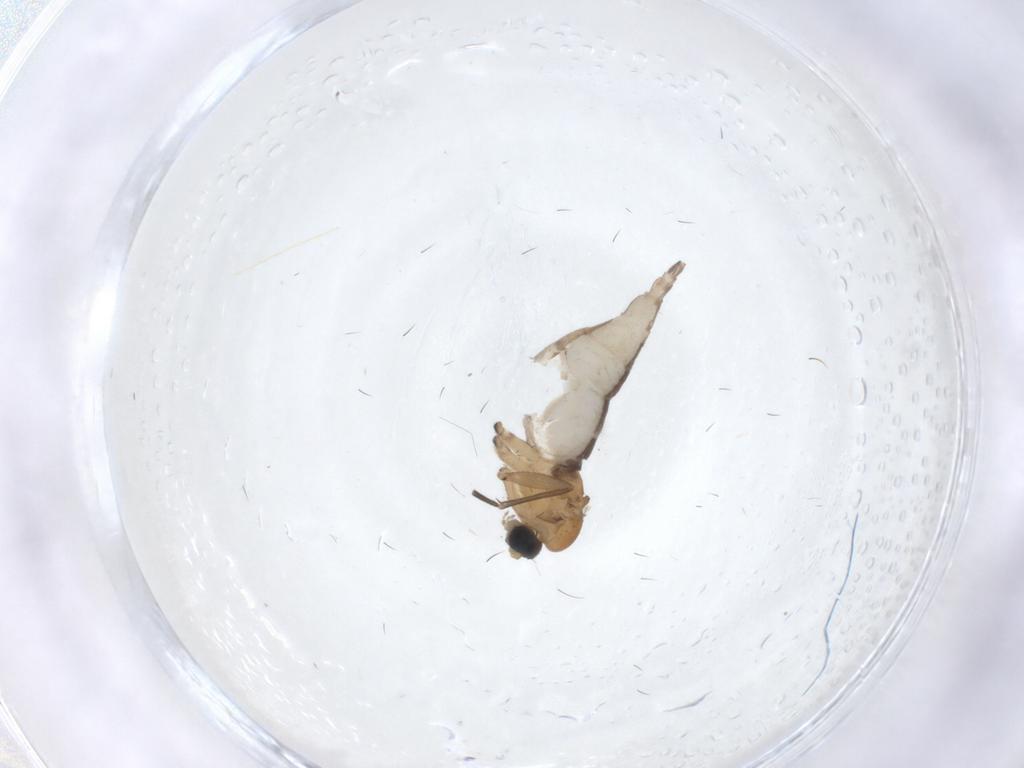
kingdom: Animalia
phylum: Arthropoda
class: Insecta
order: Diptera
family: Sciaridae
